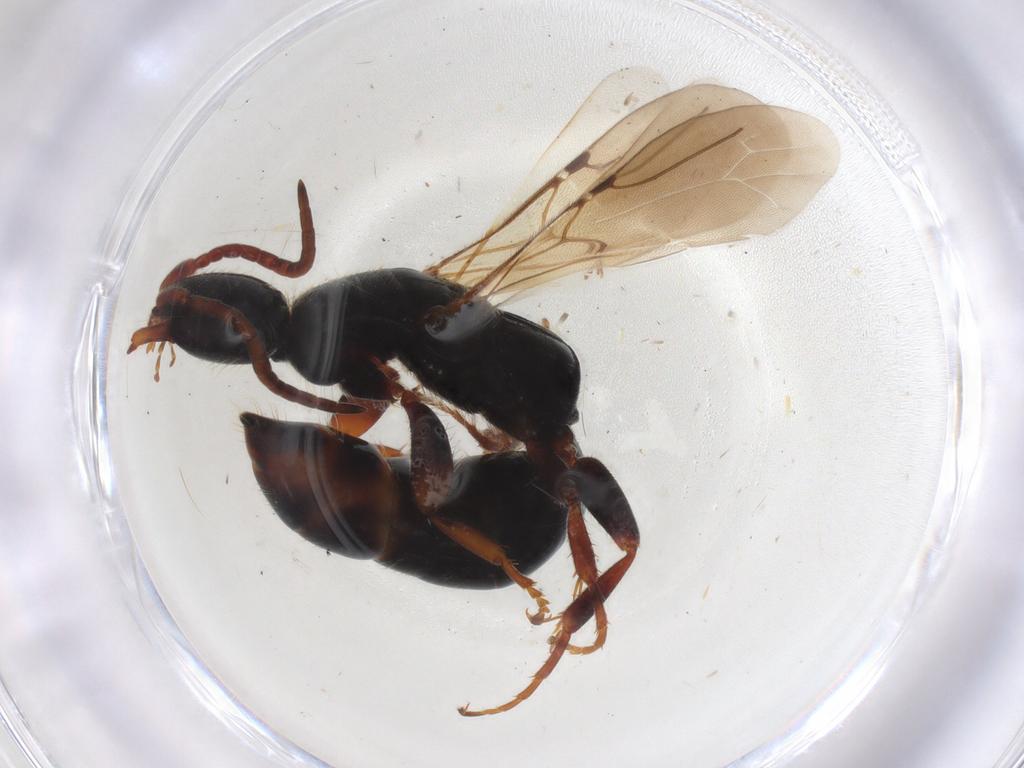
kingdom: Animalia
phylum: Arthropoda
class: Insecta
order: Hymenoptera
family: Bethylidae
